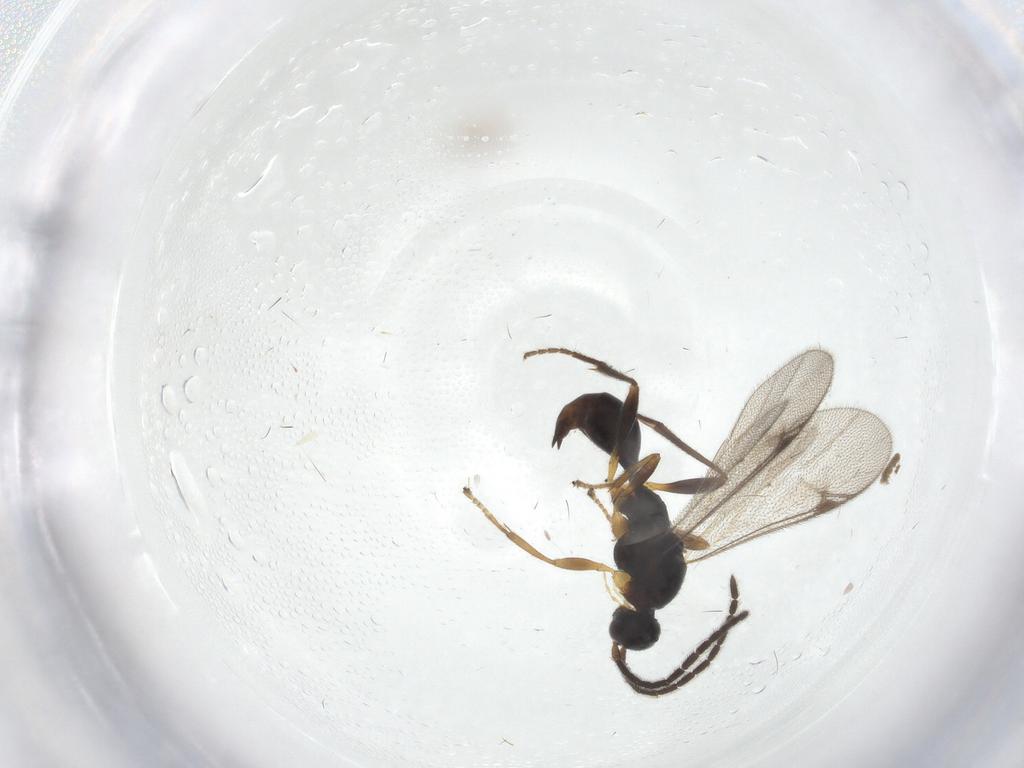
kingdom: Animalia
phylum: Arthropoda
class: Insecta
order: Hymenoptera
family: Proctotrupidae
